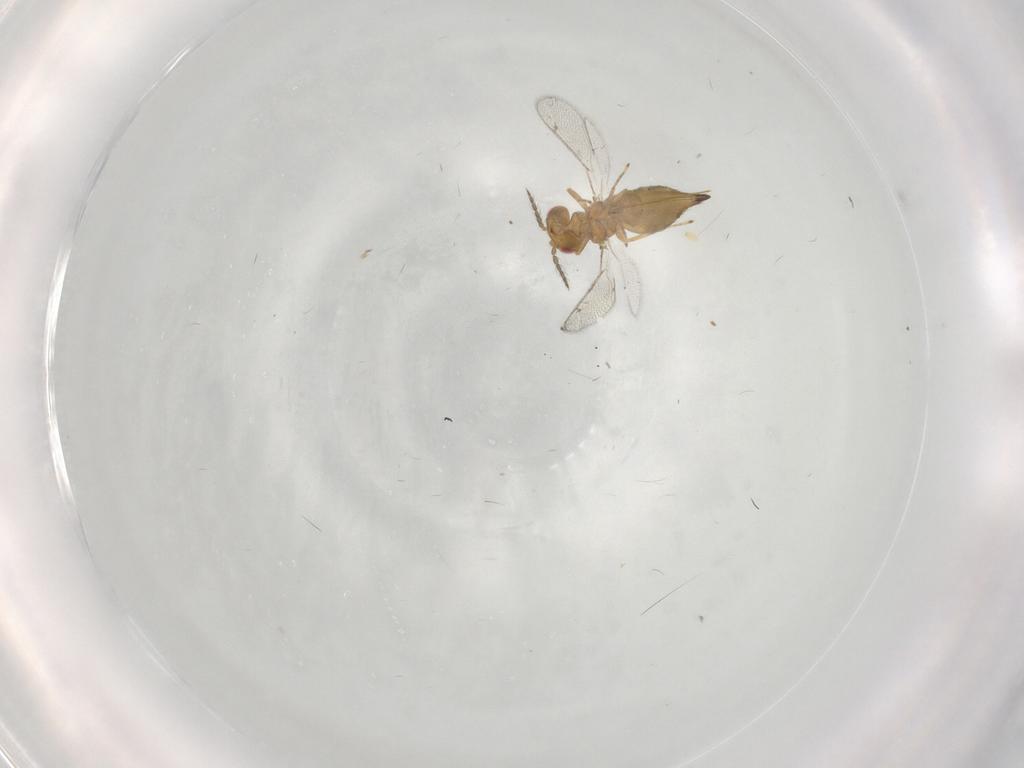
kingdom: Animalia
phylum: Arthropoda
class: Insecta
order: Hymenoptera
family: Eulophidae
